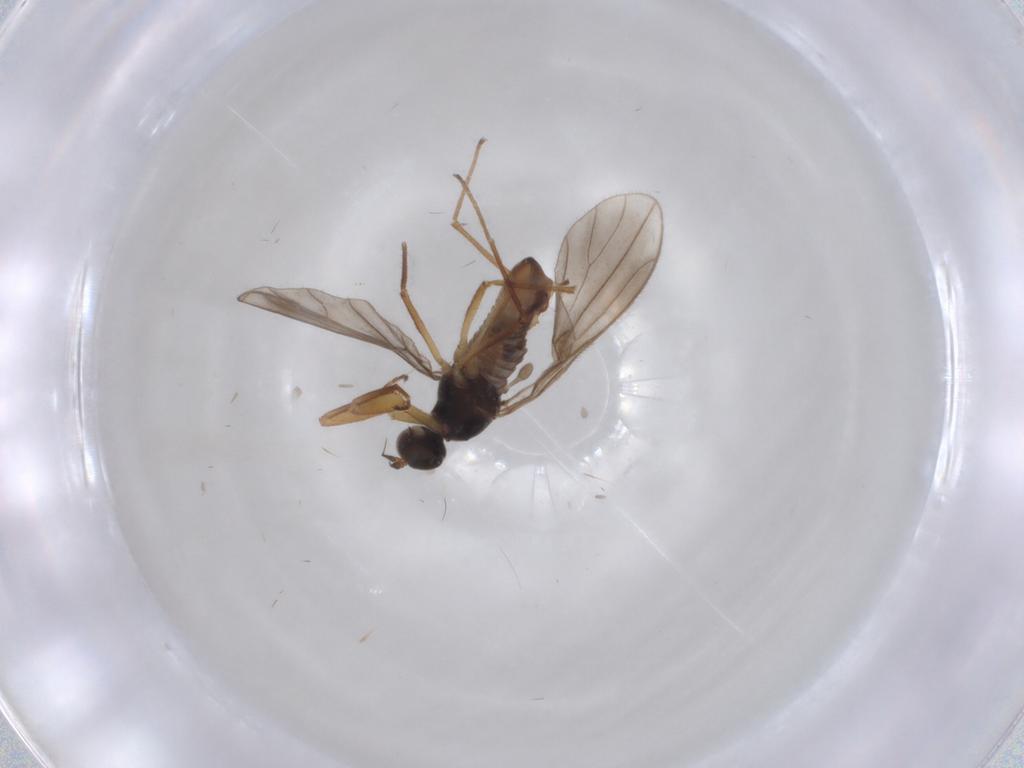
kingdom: Animalia
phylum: Arthropoda
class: Insecta
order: Diptera
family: Empididae
